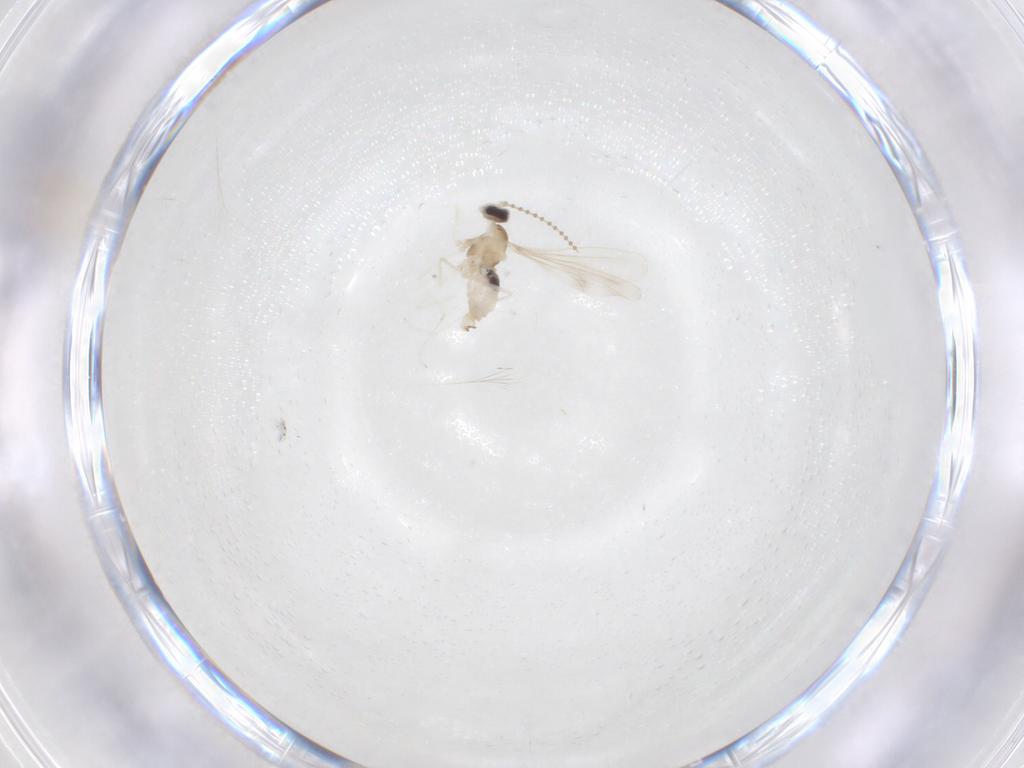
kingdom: Animalia
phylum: Arthropoda
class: Insecta
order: Diptera
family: Cecidomyiidae
